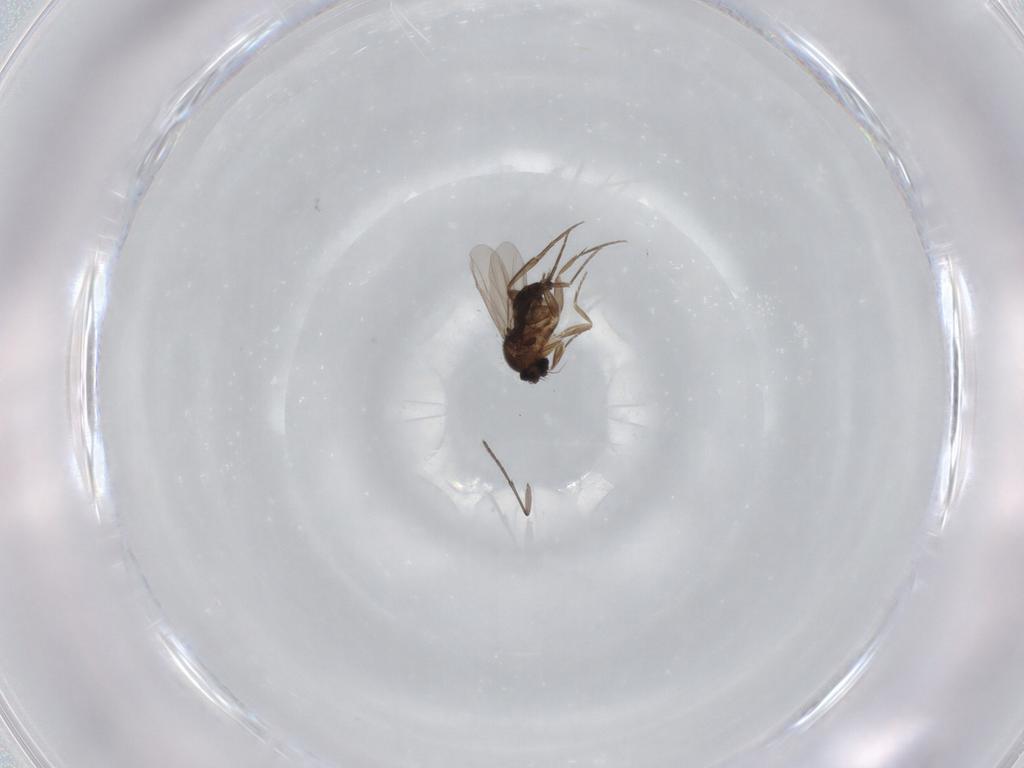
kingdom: Animalia
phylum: Arthropoda
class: Insecta
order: Diptera
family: Phoridae
